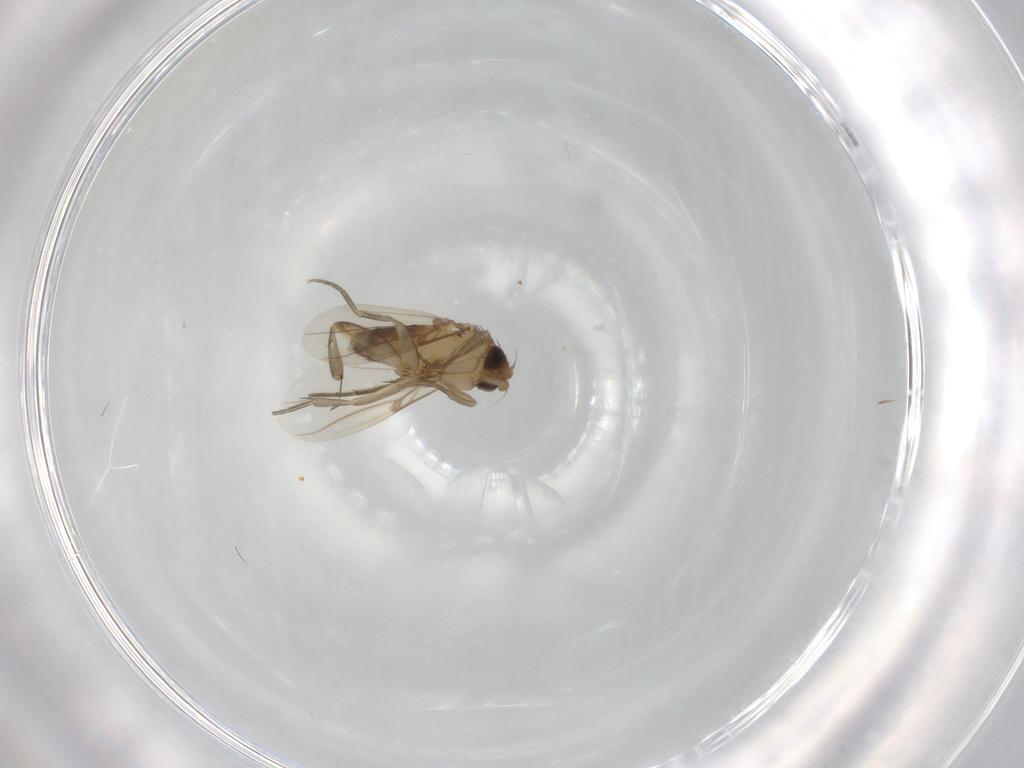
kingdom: Animalia
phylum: Arthropoda
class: Insecta
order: Diptera
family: Phoridae
